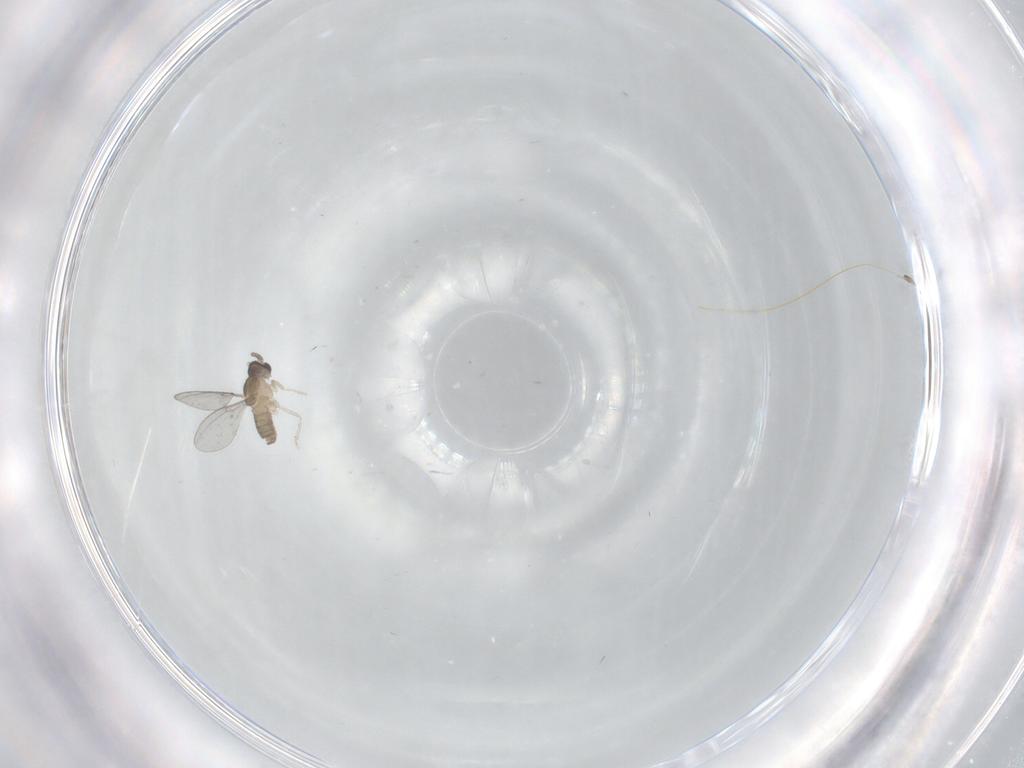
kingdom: Animalia
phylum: Arthropoda
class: Insecta
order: Diptera
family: Cecidomyiidae
